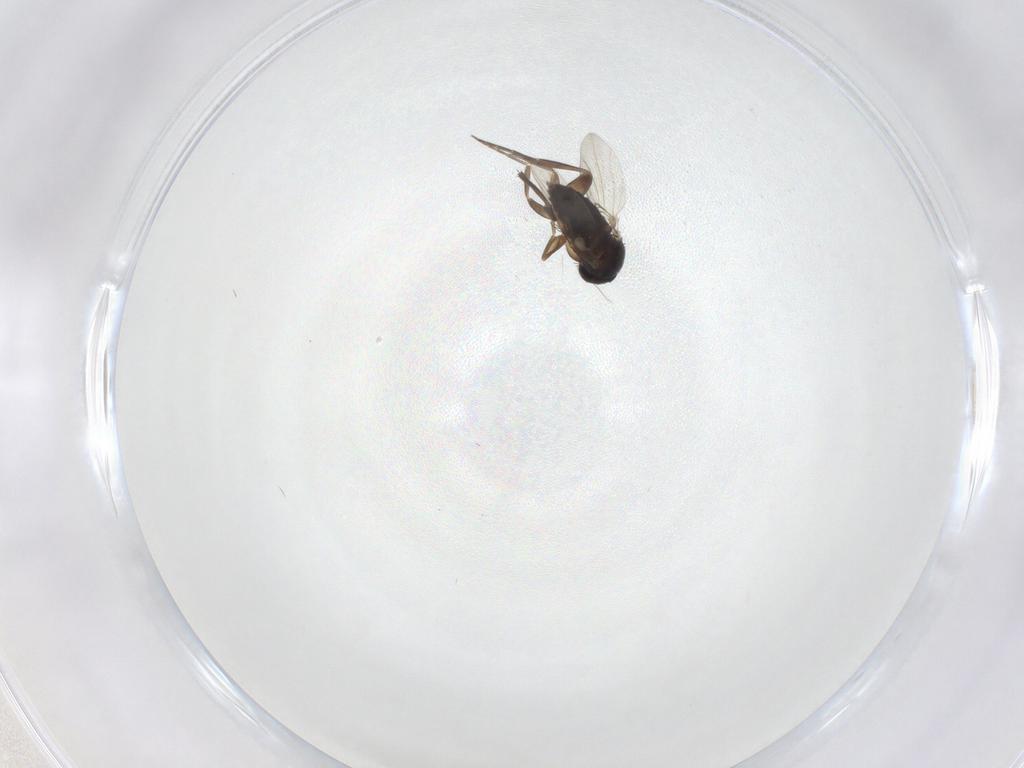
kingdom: Animalia
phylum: Arthropoda
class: Insecta
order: Diptera
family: Phoridae
